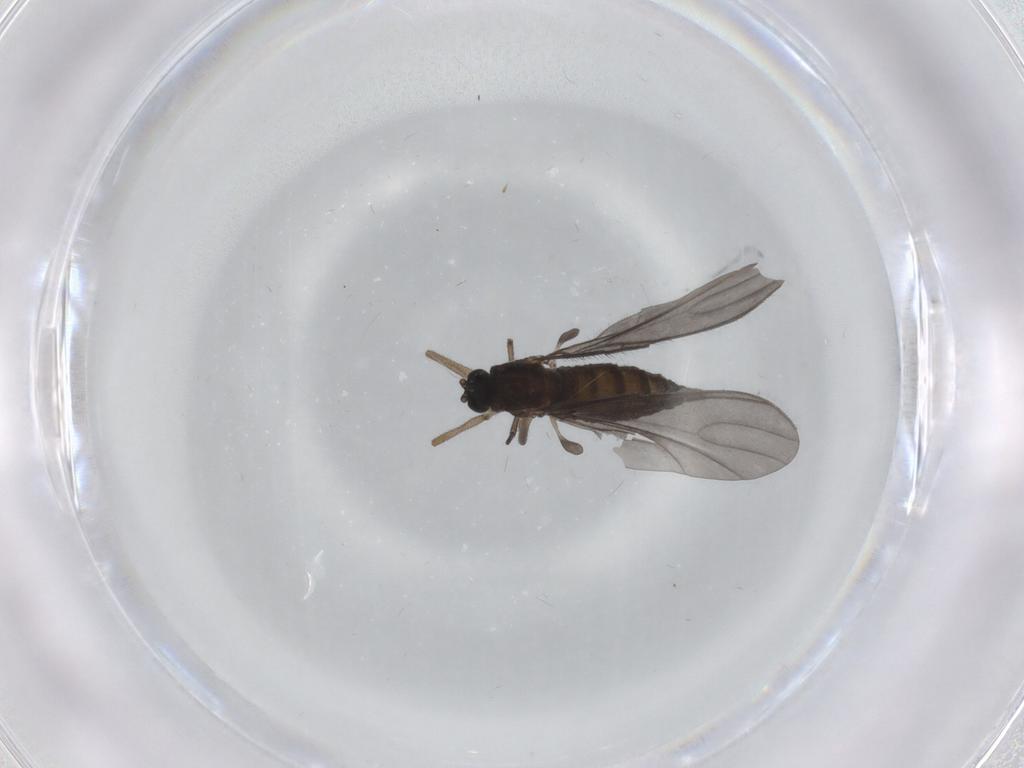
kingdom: Animalia
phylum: Arthropoda
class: Insecta
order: Diptera
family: Sciaridae
